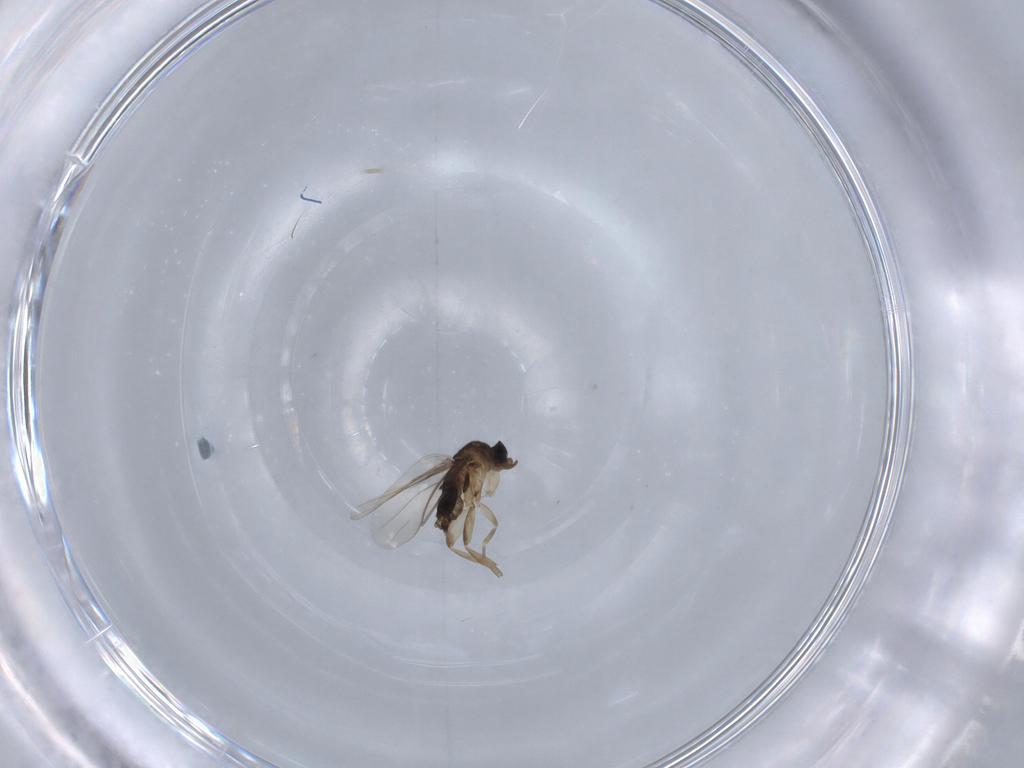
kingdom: Animalia
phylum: Arthropoda
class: Insecta
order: Diptera
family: Phoridae
